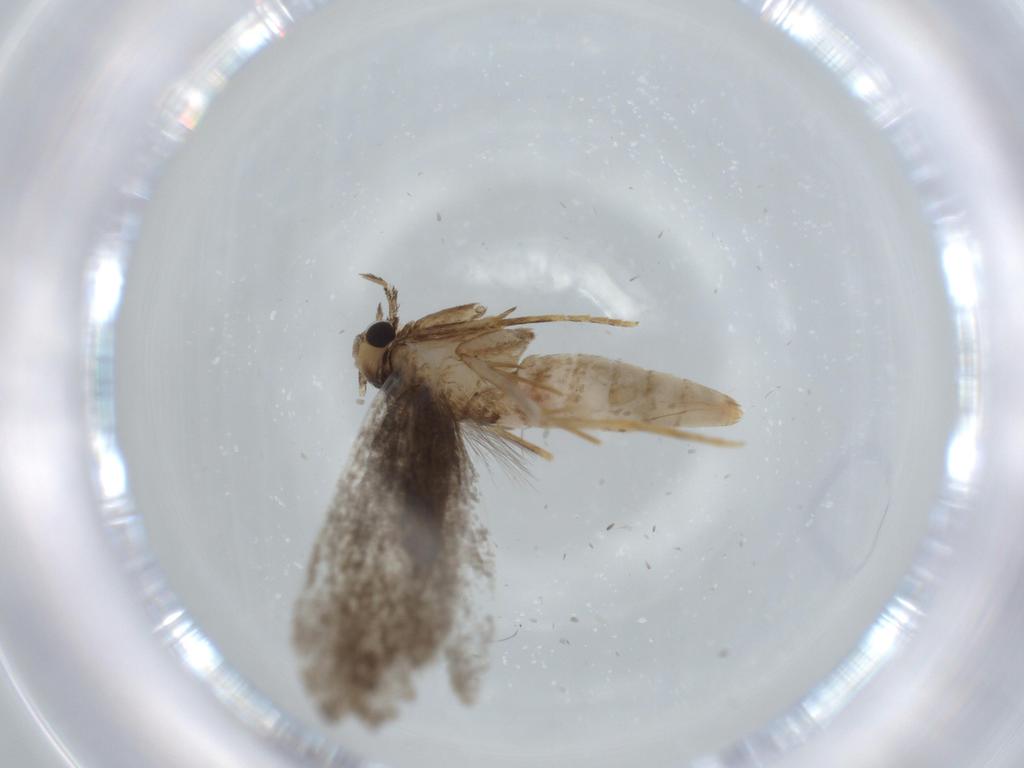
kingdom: Animalia
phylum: Arthropoda
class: Insecta
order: Lepidoptera
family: Tineidae
